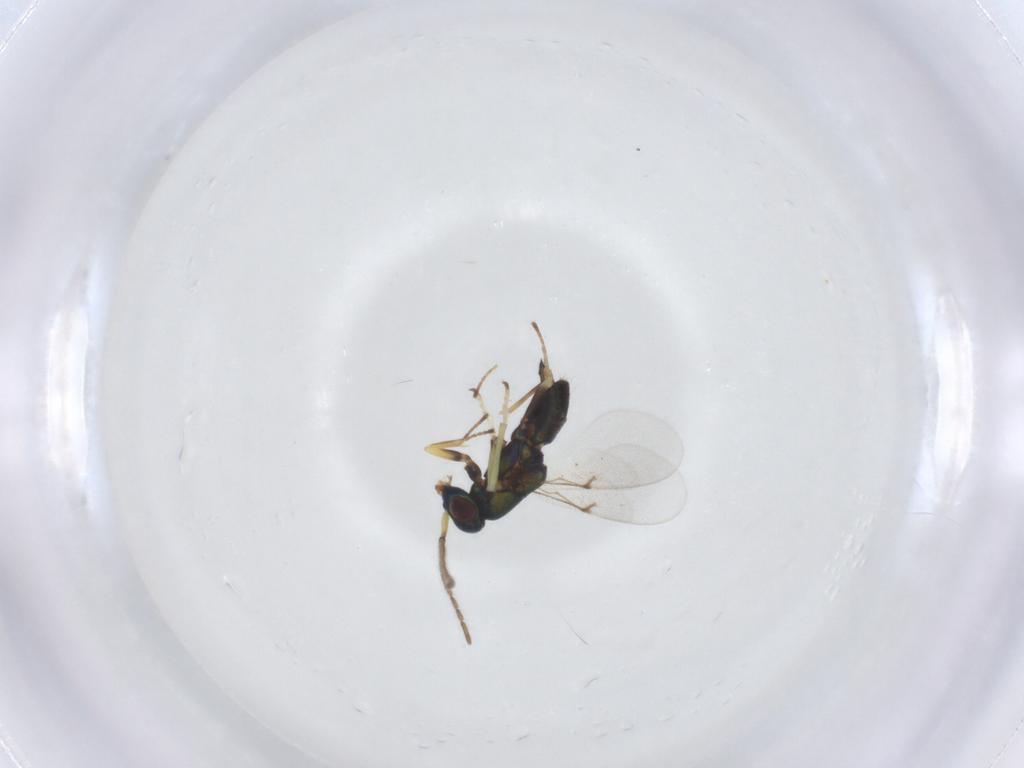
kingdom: Animalia
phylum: Arthropoda
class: Insecta
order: Hymenoptera
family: Encyrtidae
